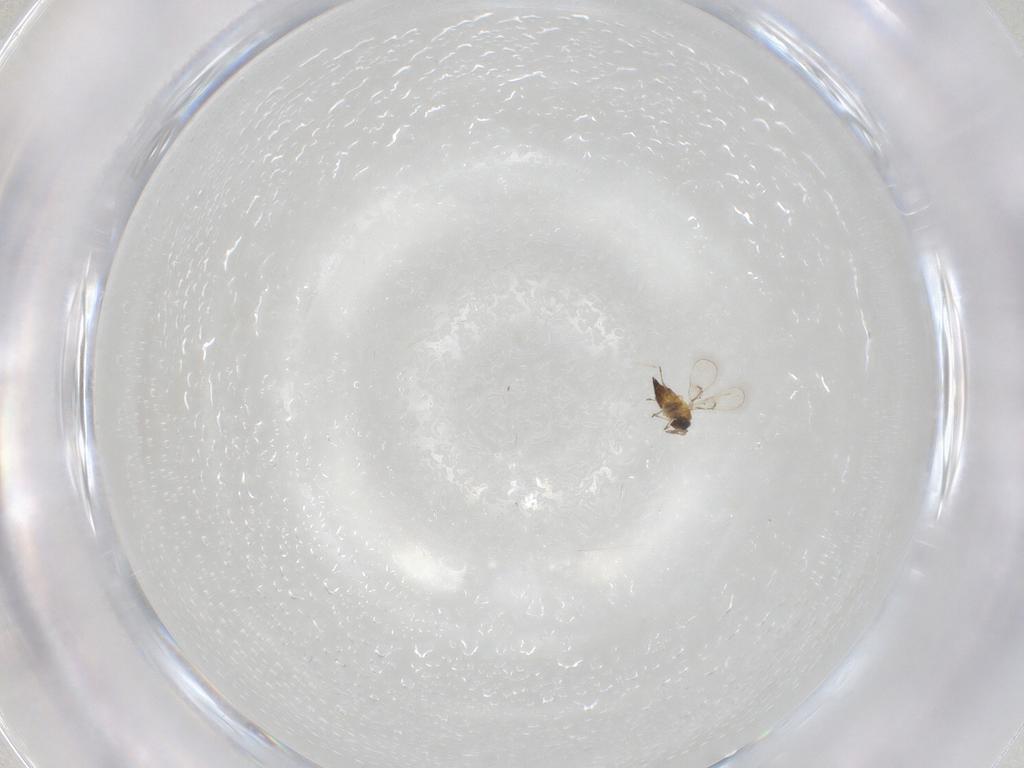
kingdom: Animalia
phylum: Arthropoda
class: Insecta
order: Hymenoptera
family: Trichogrammatidae
